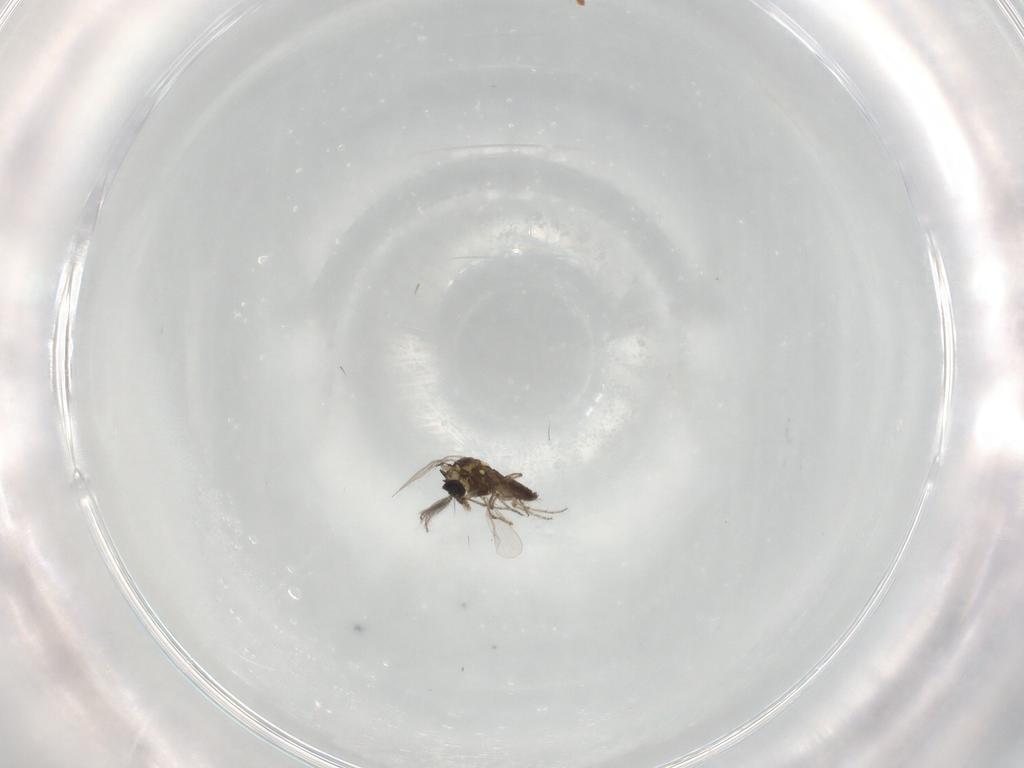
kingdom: Animalia
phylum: Arthropoda
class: Insecta
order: Diptera
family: Ceratopogonidae
